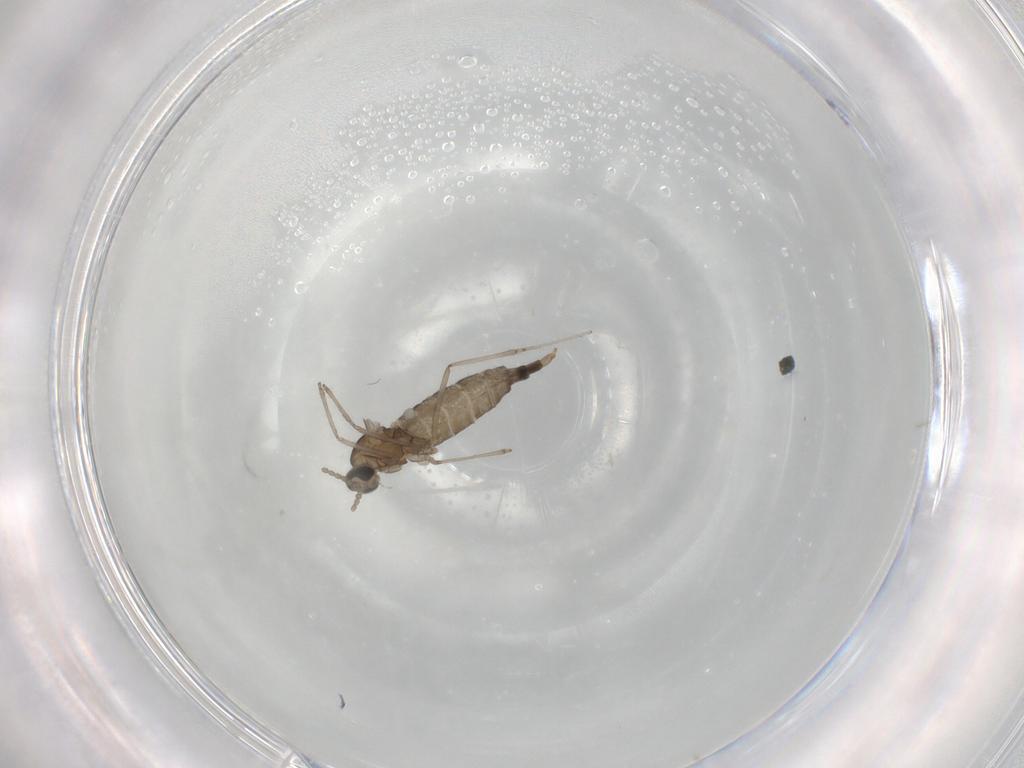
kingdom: Animalia
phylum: Arthropoda
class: Insecta
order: Diptera
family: Cecidomyiidae
